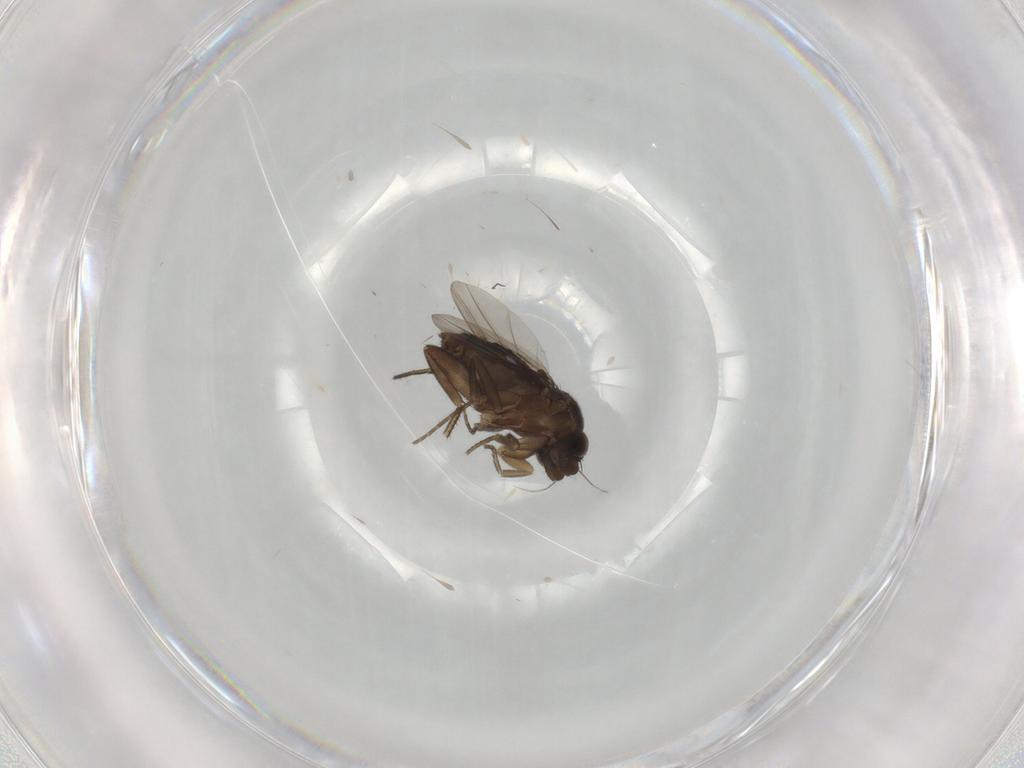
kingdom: Animalia
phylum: Arthropoda
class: Insecta
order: Diptera
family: Phoridae
